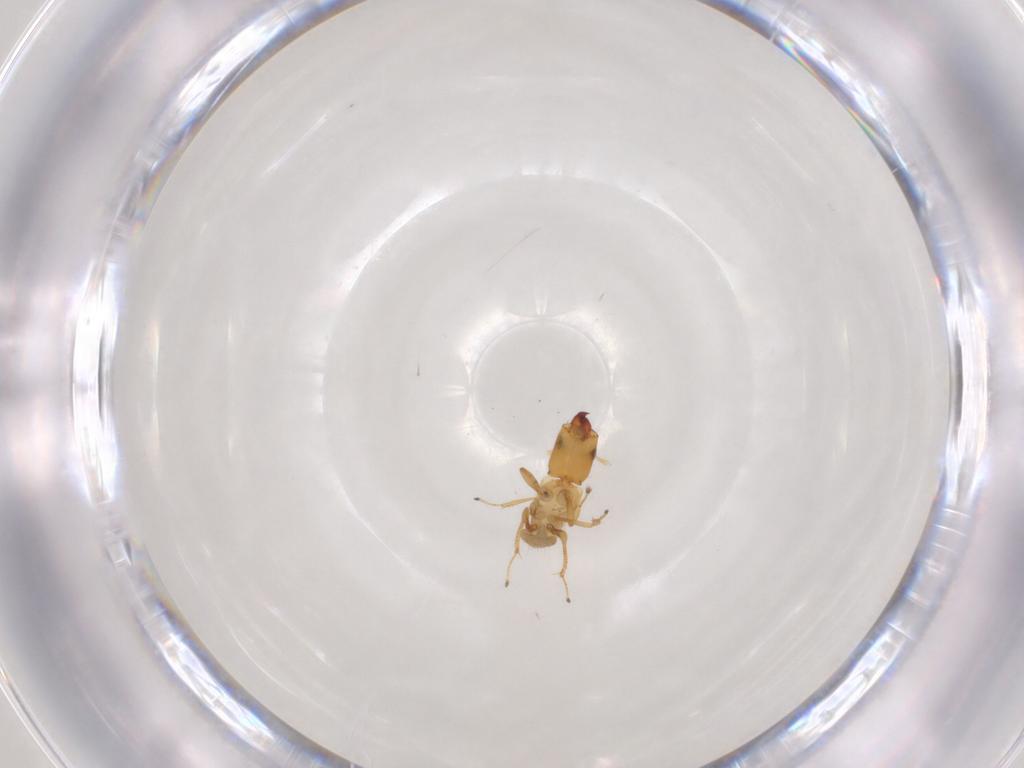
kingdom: Animalia
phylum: Arthropoda
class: Insecta
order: Hymenoptera
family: Pteromalidae
